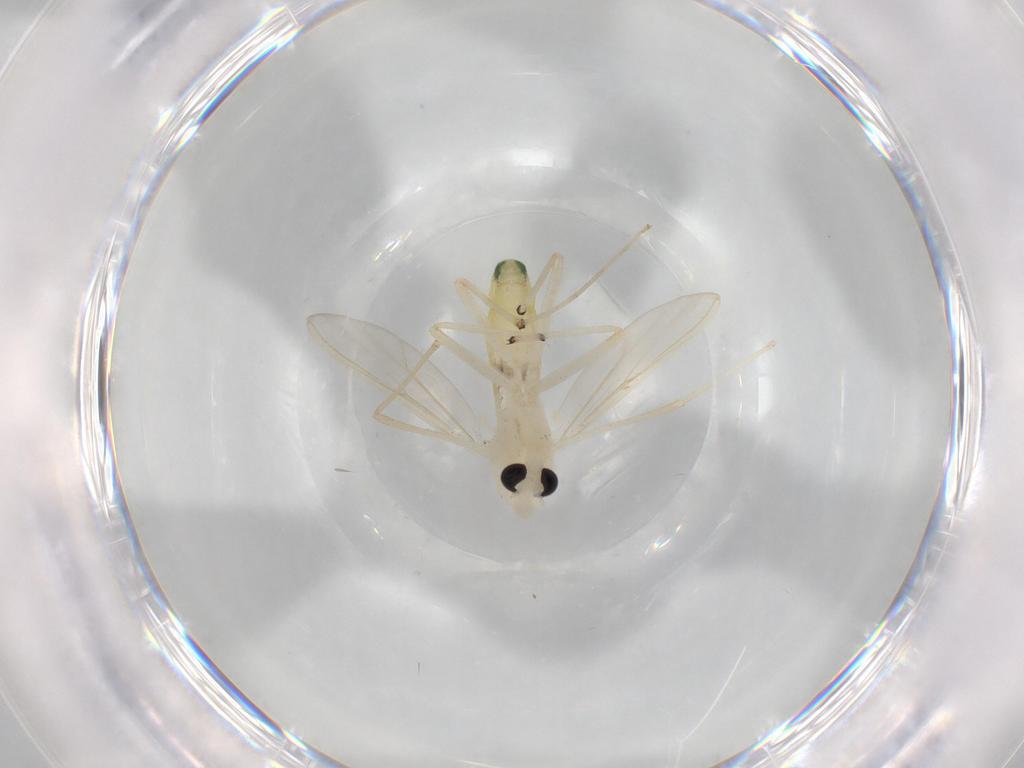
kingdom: Animalia
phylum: Arthropoda
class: Insecta
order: Diptera
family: Chironomidae
